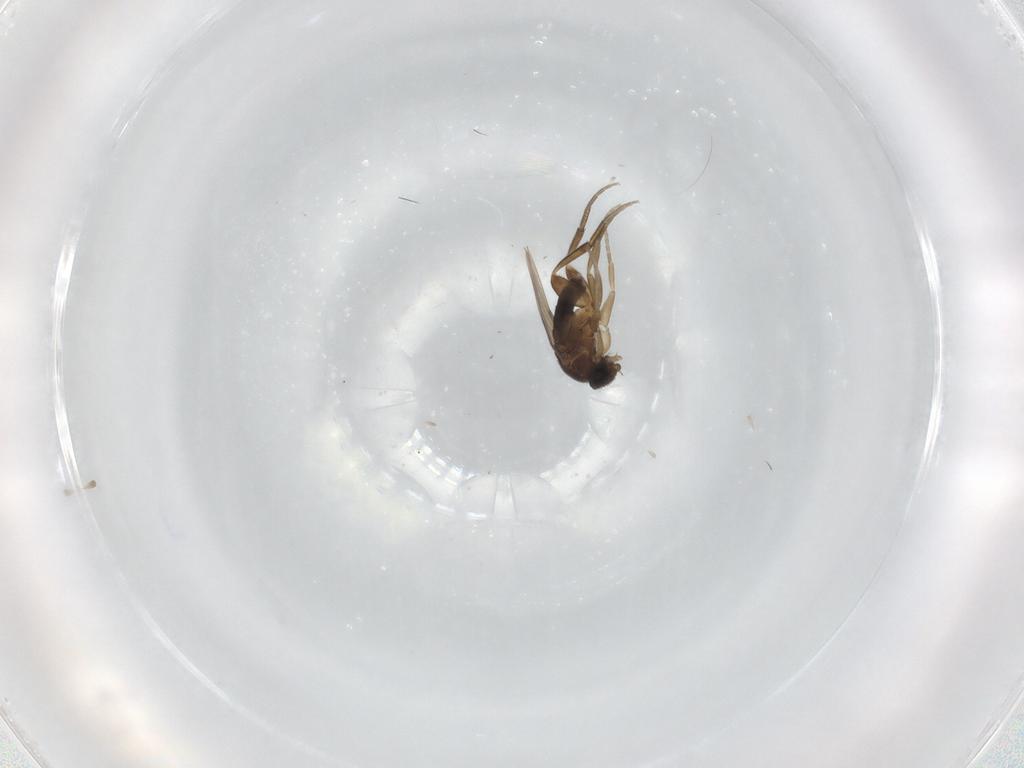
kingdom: Animalia
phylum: Arthropoda
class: Insecta
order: Diptera
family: Phoridae
